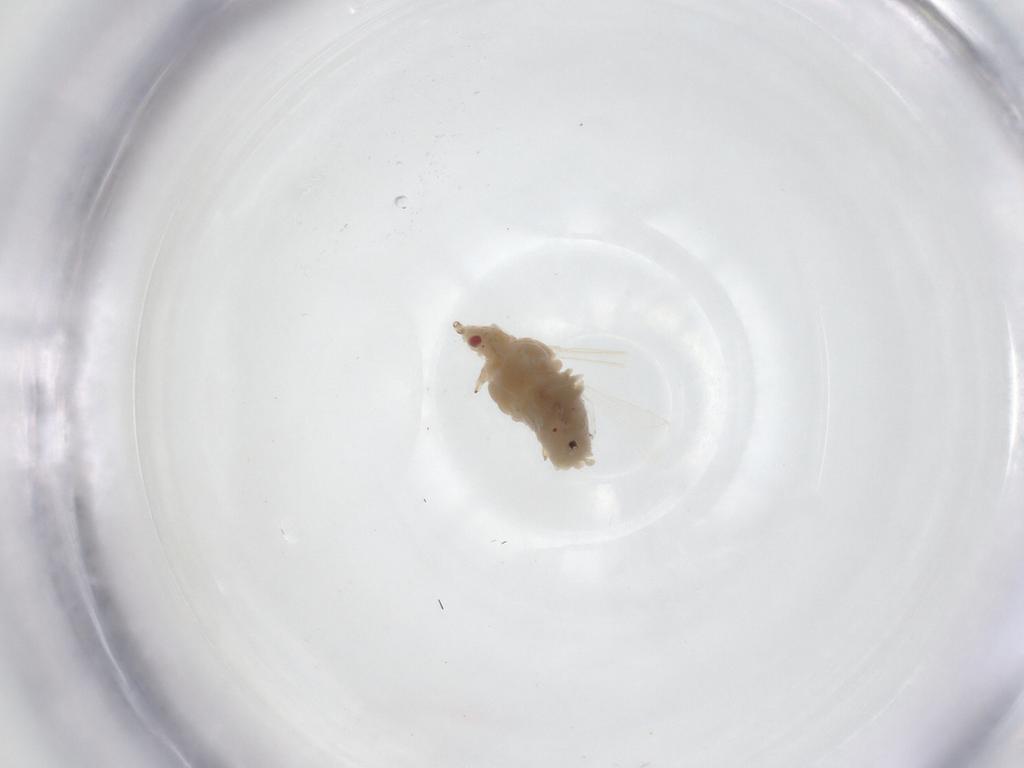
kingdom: Animalia
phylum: Arthropoda
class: Insecta
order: Hemiptera
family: Aphididae
